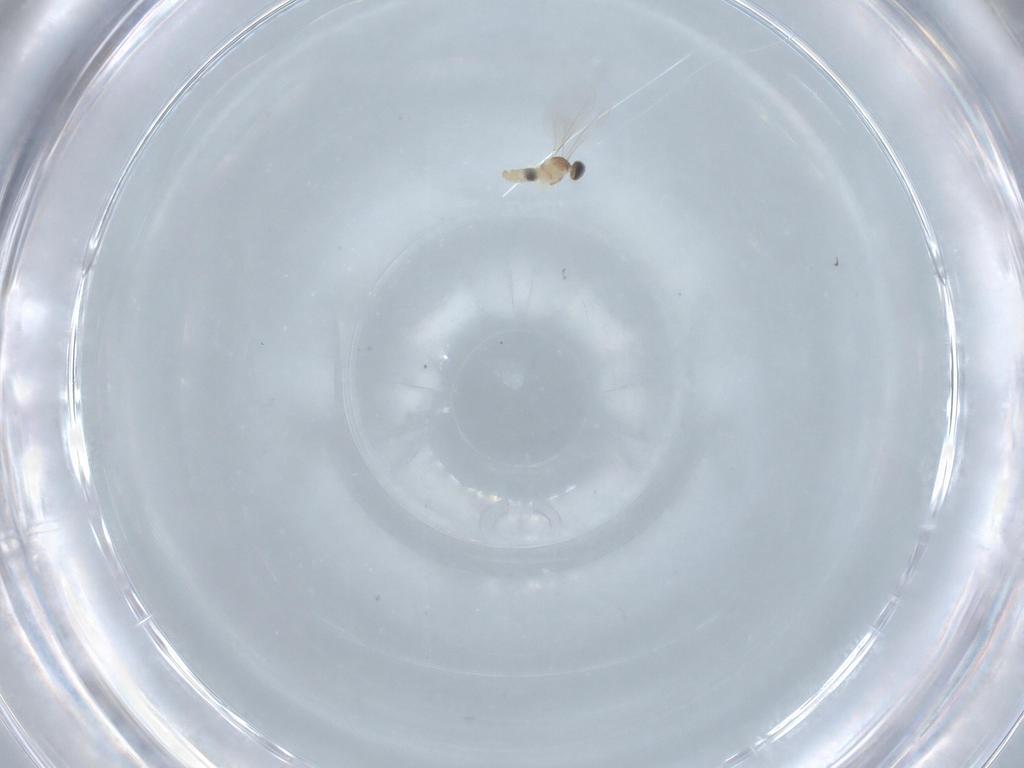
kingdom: Animalia
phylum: Arthropoda
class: Insecta
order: Diptera
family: Cecidomyiidae
